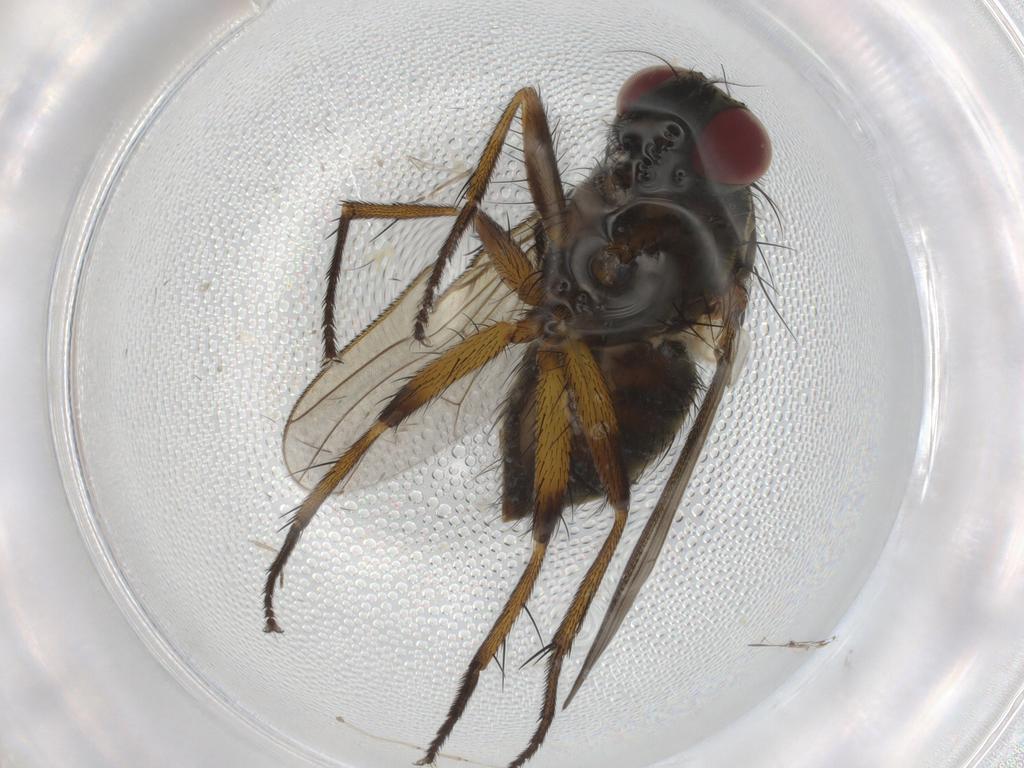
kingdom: Animalia
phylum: Arthropoda
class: Insecta
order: Diptera
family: Muscidae
